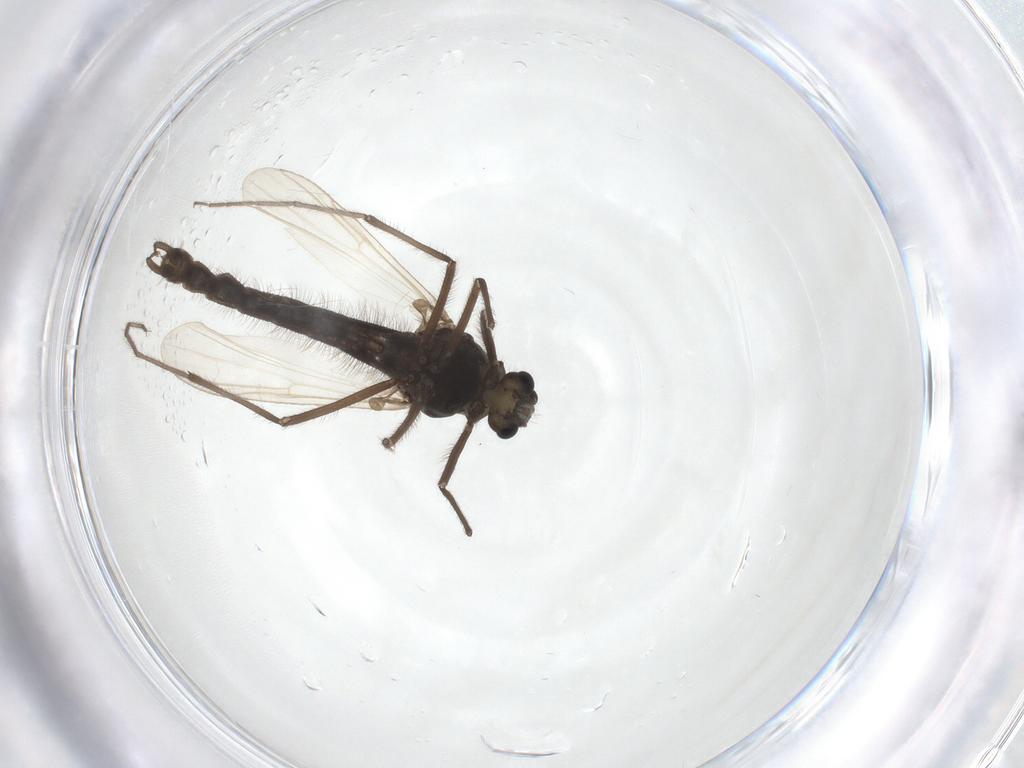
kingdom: Animalia
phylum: Arthropoda
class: Insecta
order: Diptera
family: Chironomidae
